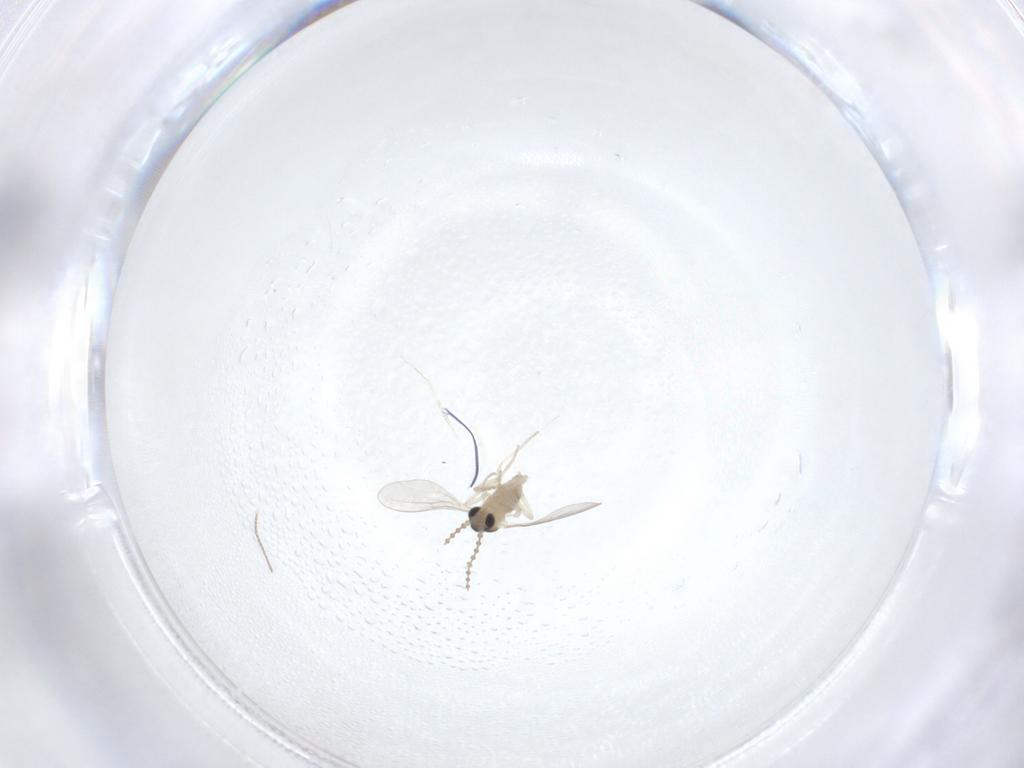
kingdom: Animalia
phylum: Arthropoda
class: Insecta
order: Diptera
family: Cecidomyiidae
